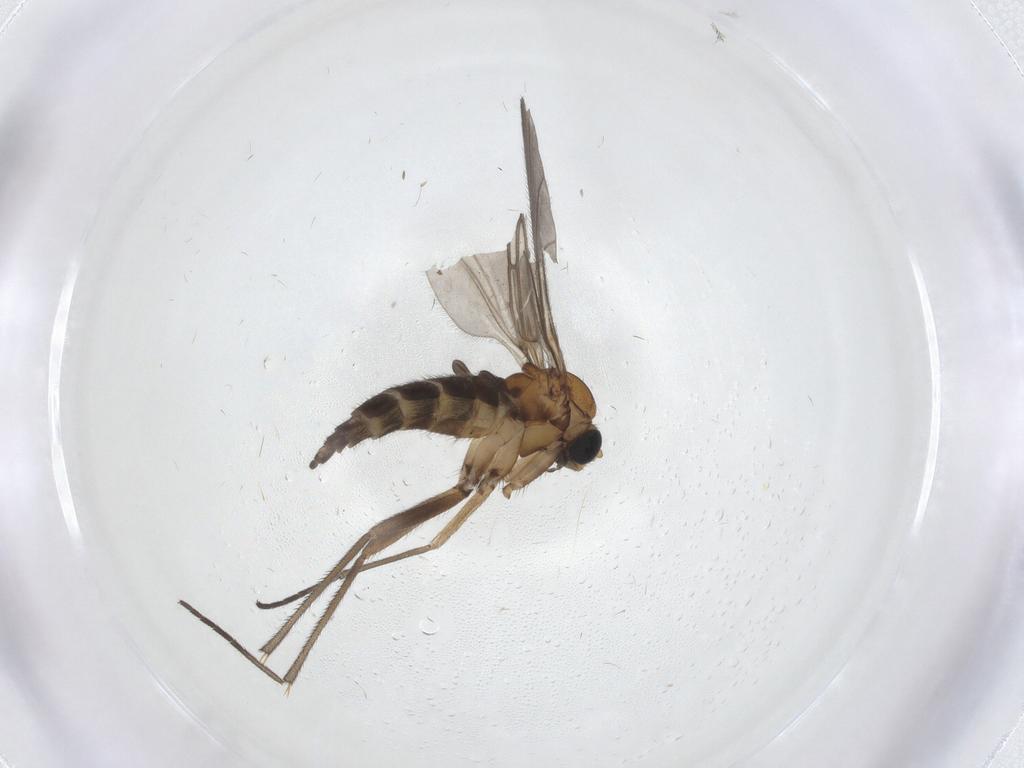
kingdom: Animalia
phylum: Arthropoda
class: Insecta
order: Diptera
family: Sciaridae
